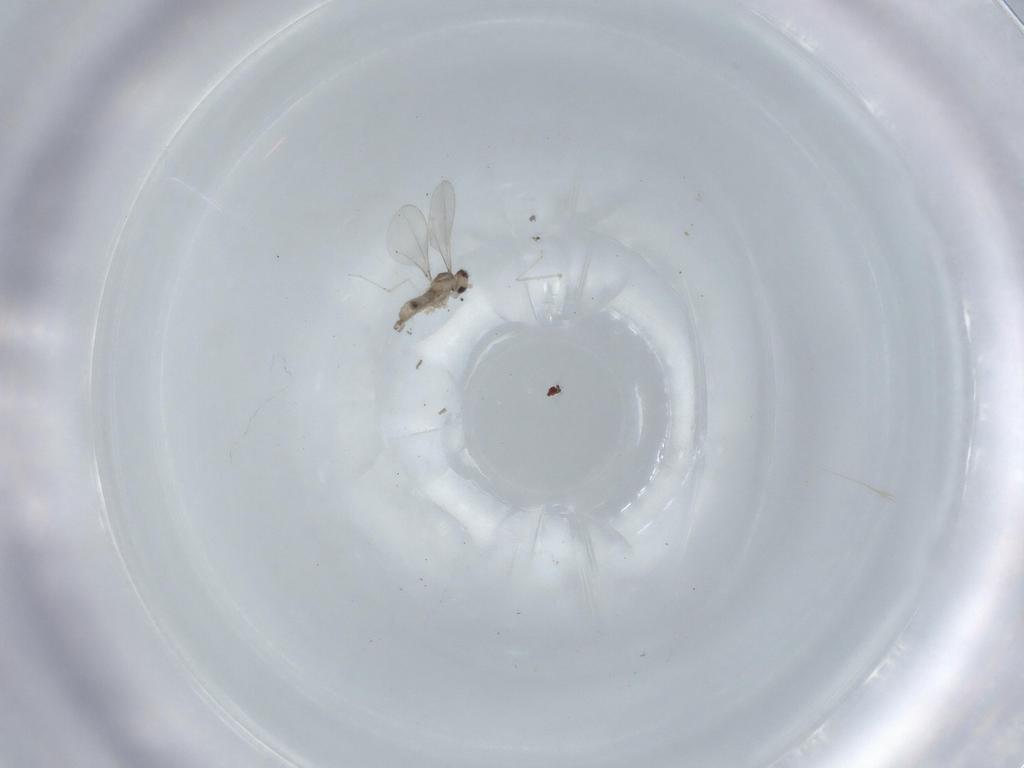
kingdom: Animalia
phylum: Arthropoda
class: Insecta
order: Diptera
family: Cecidomyiidae
